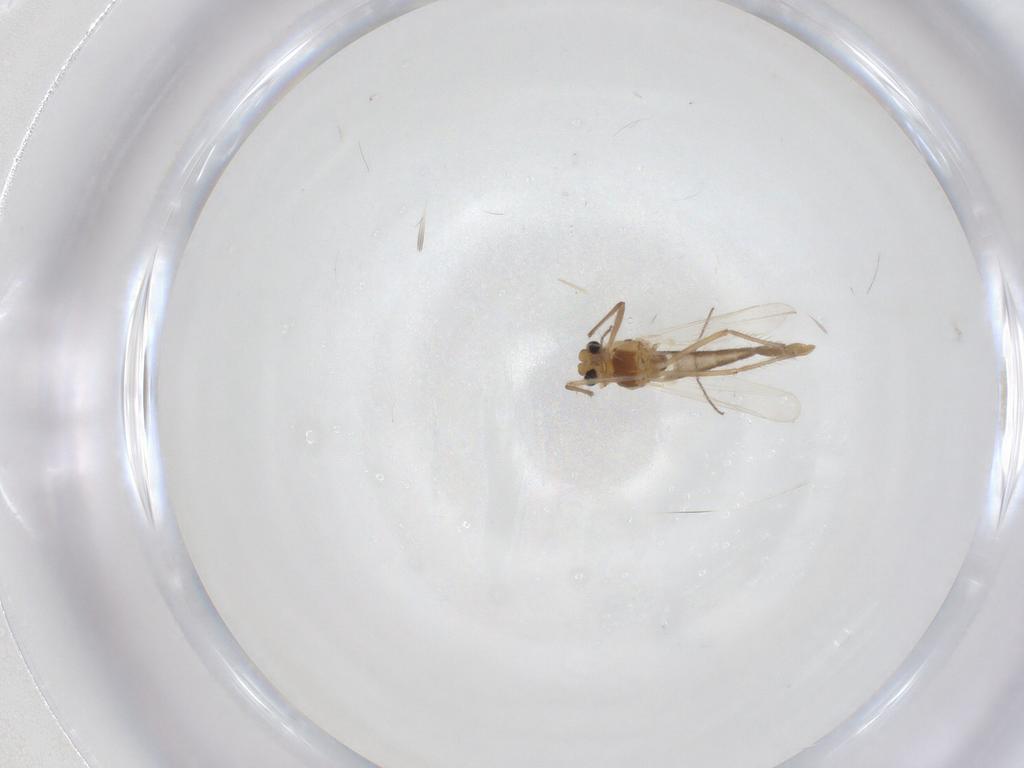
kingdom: Animalia
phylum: Arthropoda
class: Insecta
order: Diptera
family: Chironomidae
